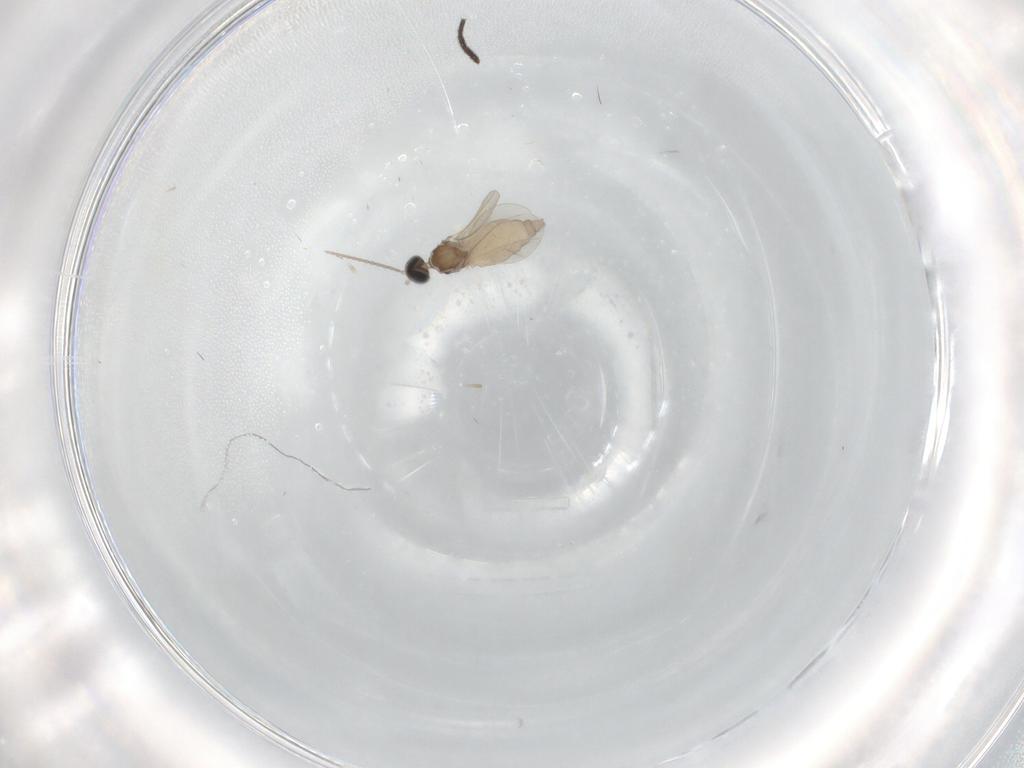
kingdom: Animalia
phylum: Arthropoda
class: Insecta
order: Diptera
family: Cecidomyiidae
